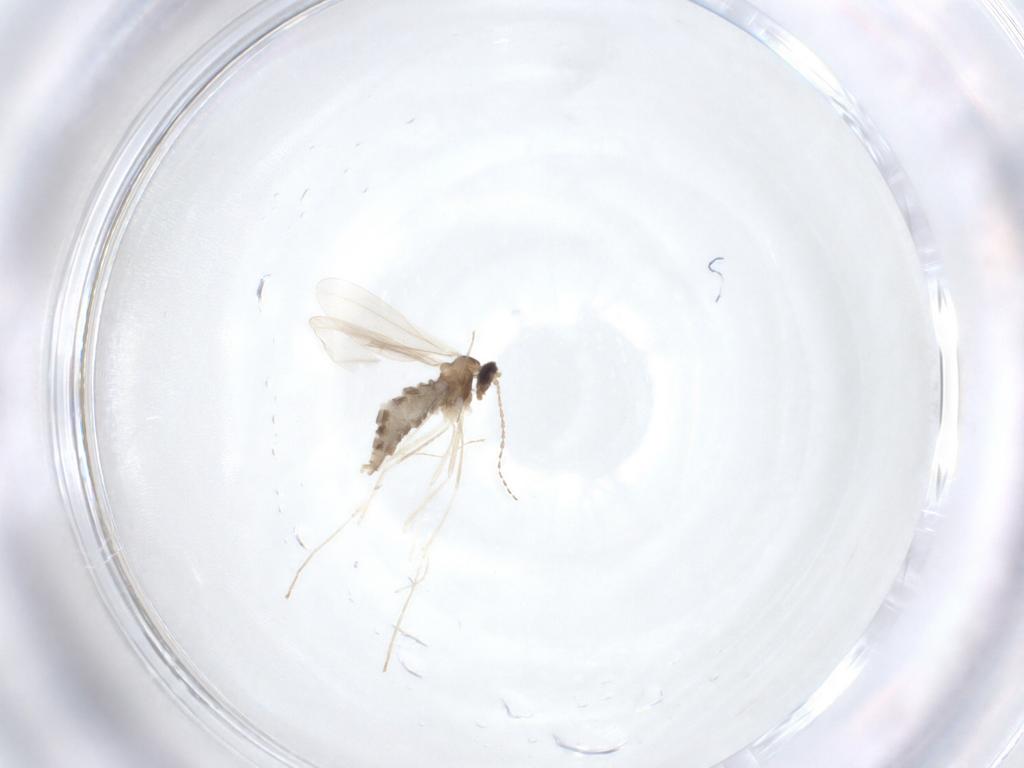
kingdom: Animalia
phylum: Arthropoda
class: Insecta
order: Diptera
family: Cecidomyiidae
